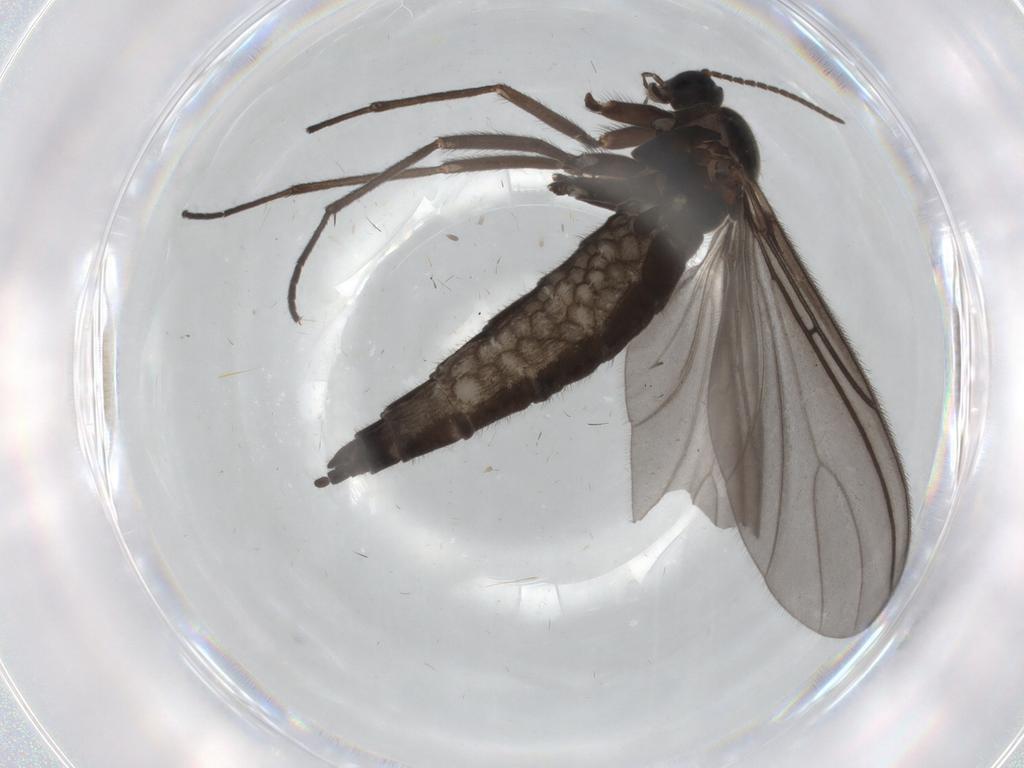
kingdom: Animalia
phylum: Arthropoda
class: Insecta
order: Diptera
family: Sciaridae
